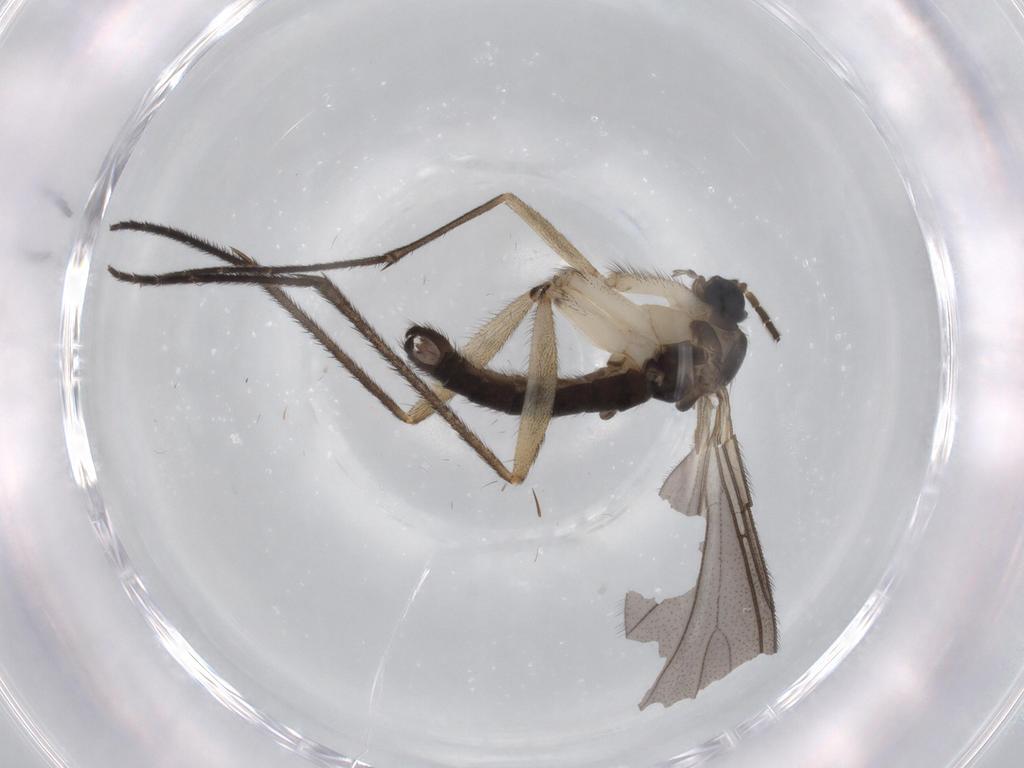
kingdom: Animalia
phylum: Arthropoda
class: Insecta
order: Diptera
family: Sciaridae
